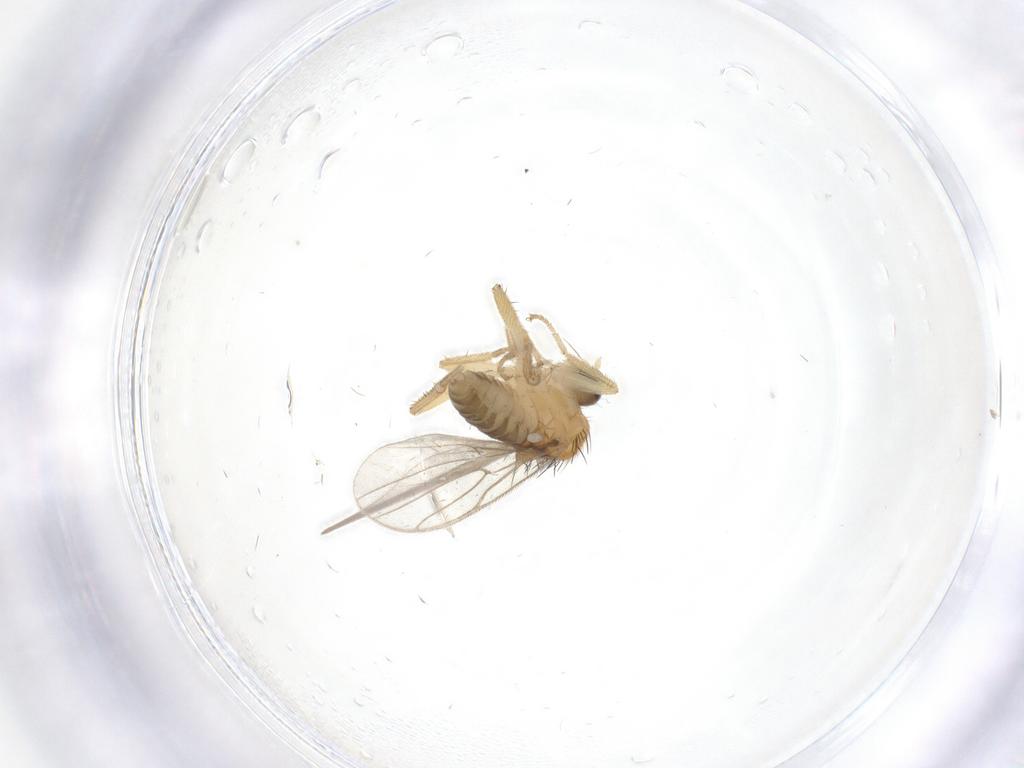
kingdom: Animalia
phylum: Arthropoda
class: Insecta
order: Diptera
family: Hybotidae
